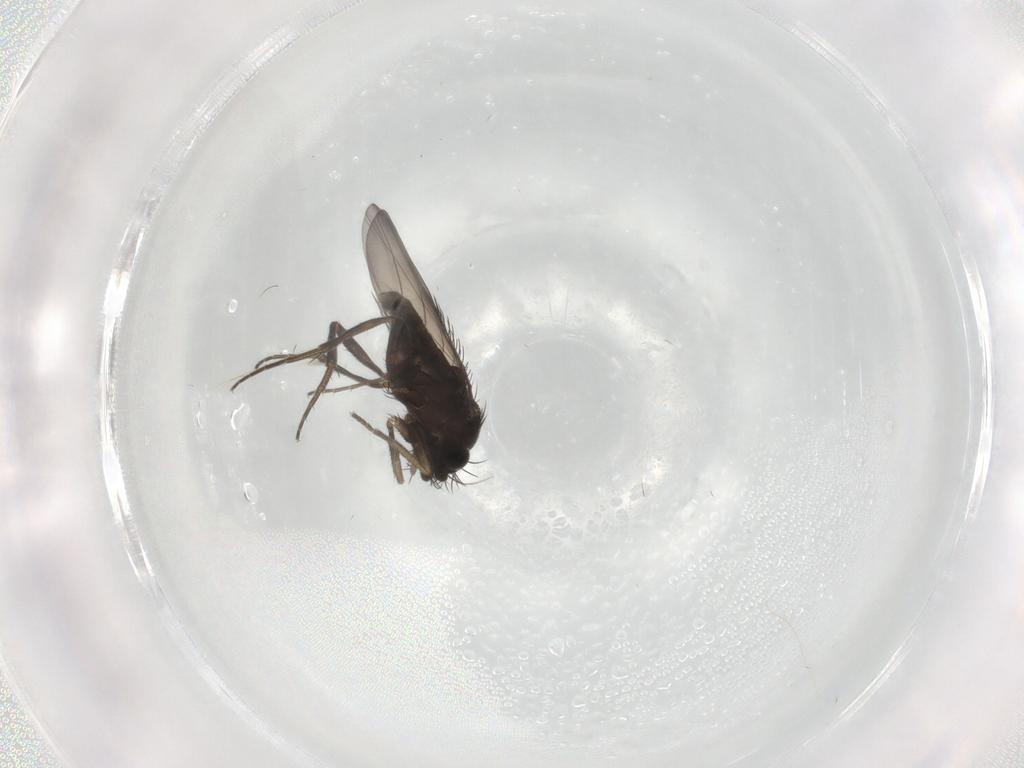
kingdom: Animalia
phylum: Arthropoda
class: Insecta
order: Diptera
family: Phoridae
